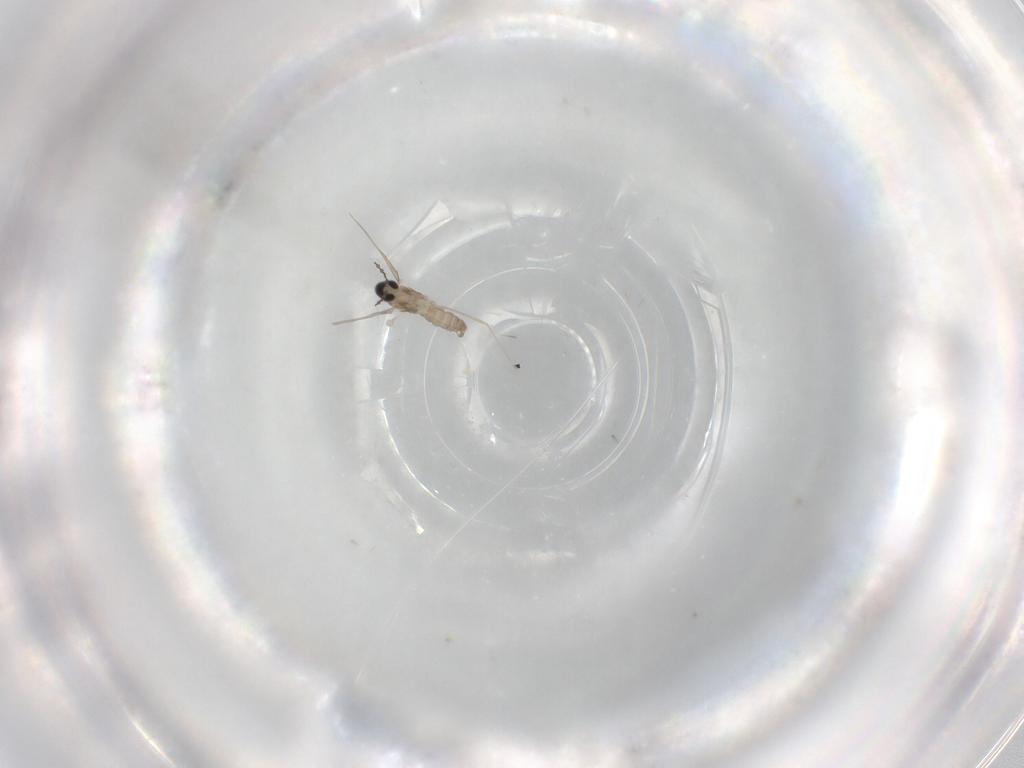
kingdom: Animalia
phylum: Arthropoda
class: Insecta
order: Diptera
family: Cecidomyiidae
